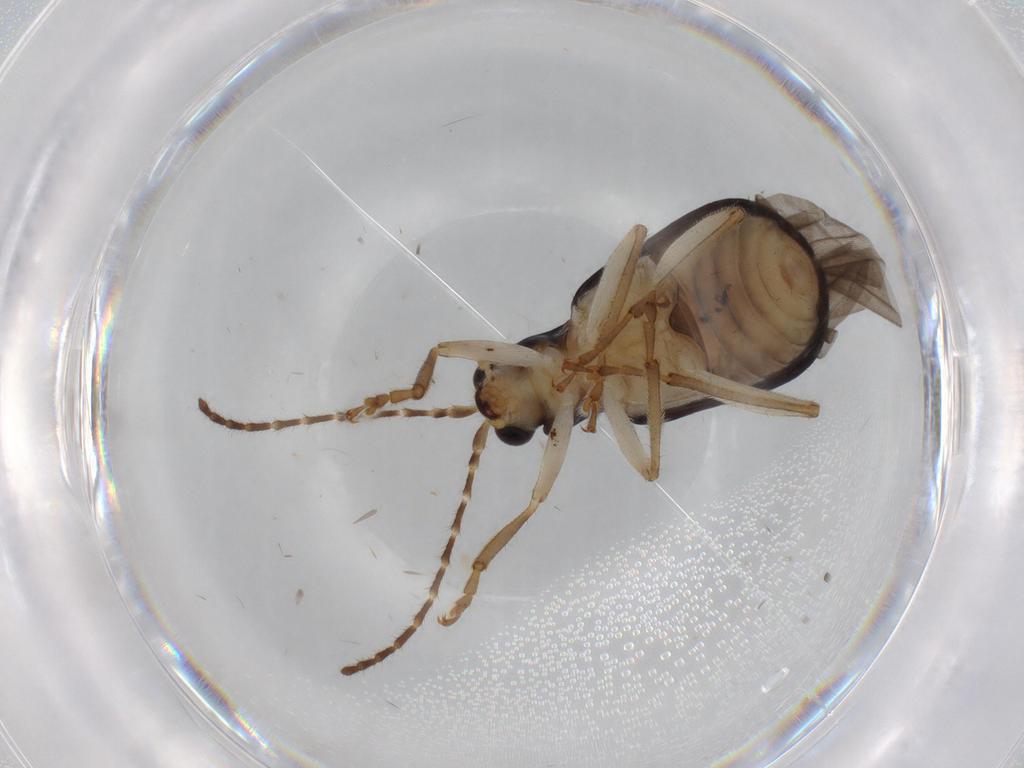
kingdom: Animalia
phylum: Arthropoda
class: Insecta
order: Coleoptera
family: Chrysomelidae
